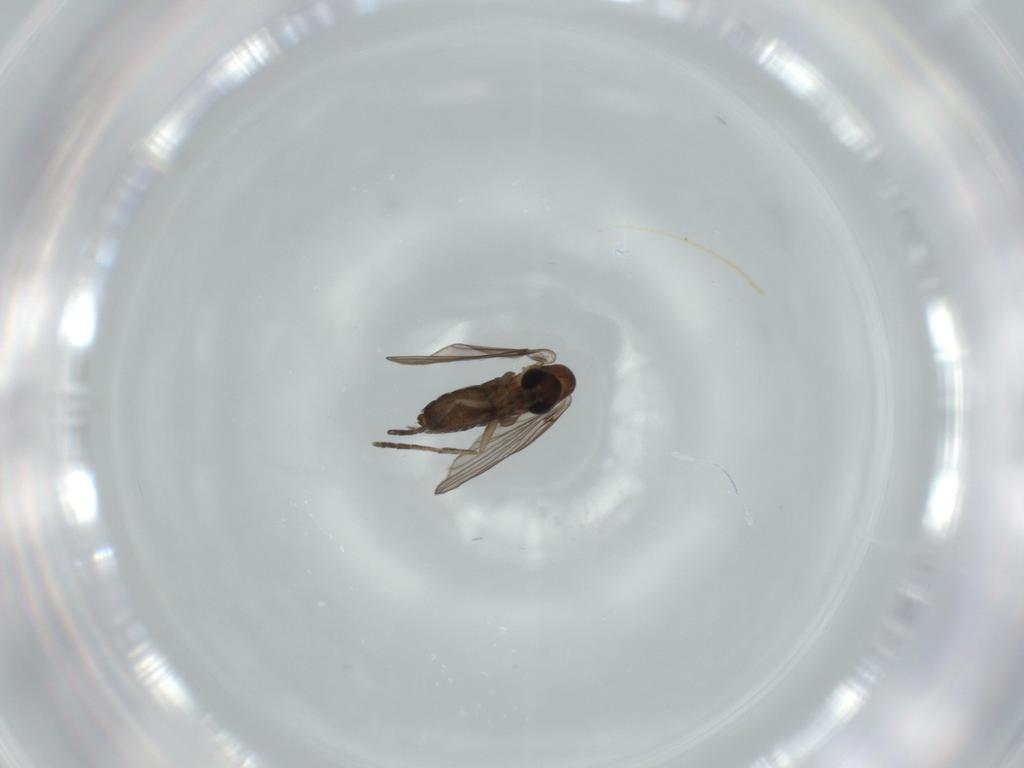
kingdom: Animalia
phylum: Arthropoda
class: Insecta
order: Diptera
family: Psychodidae
